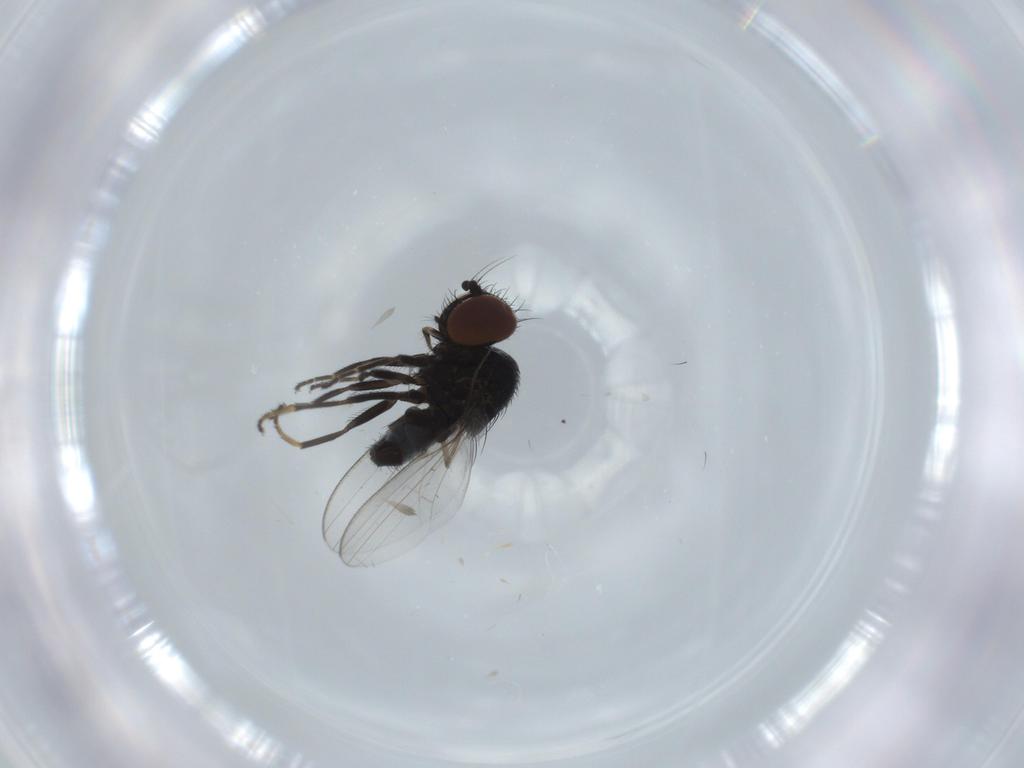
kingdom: Animalia
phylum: Arthropoda
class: Insecta
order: Diptera
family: Milichiidae
